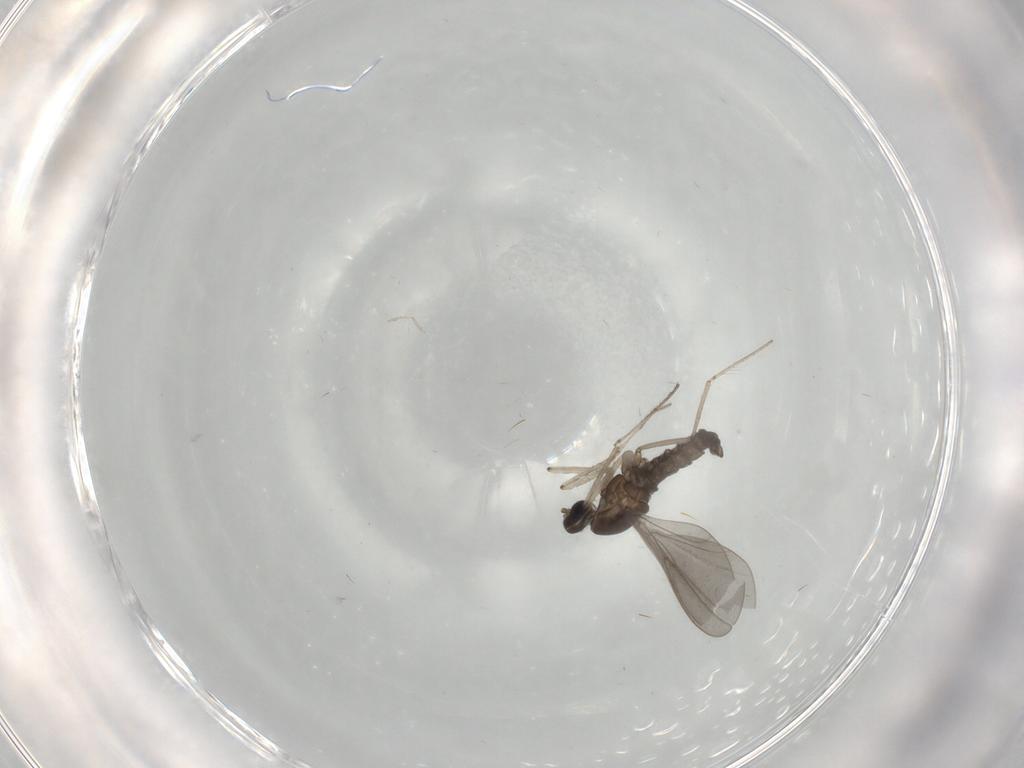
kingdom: Animalia
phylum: Arthropoda
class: Insecta
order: Diptera
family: Cecidomyiidae
